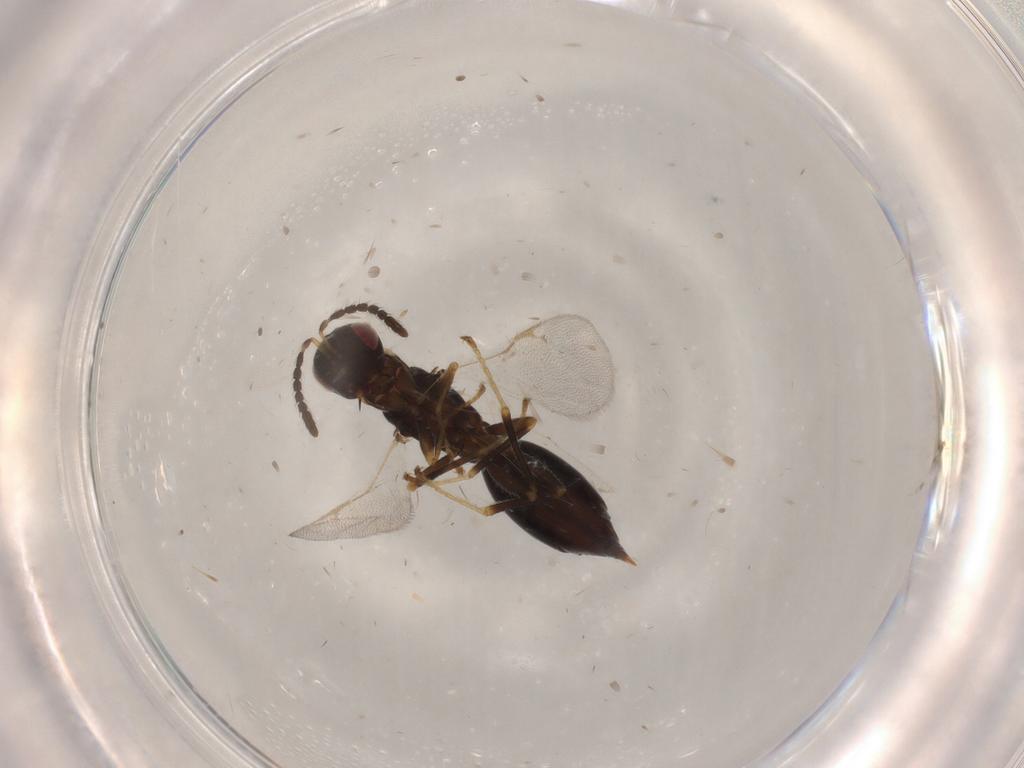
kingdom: Animalia
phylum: Arthropoda
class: Insecta
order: Hymenoptera
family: Eurytomidae
